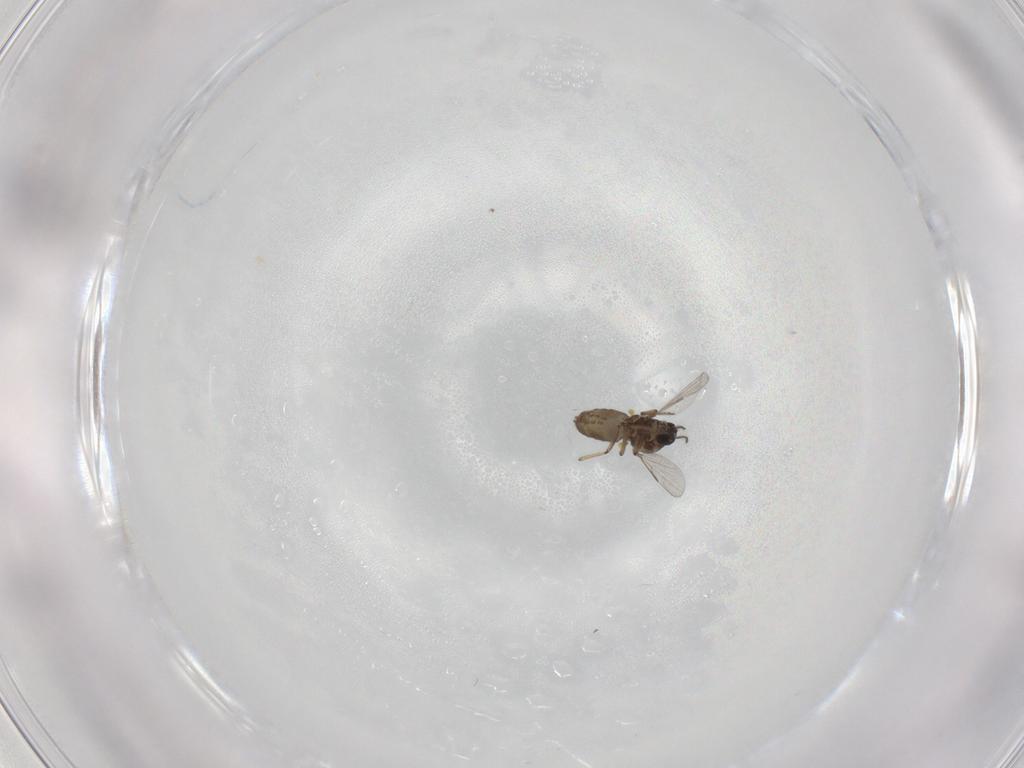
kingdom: Animalia
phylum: Arthropoda
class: Insecta
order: Diptera
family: Ceratopogonidae
